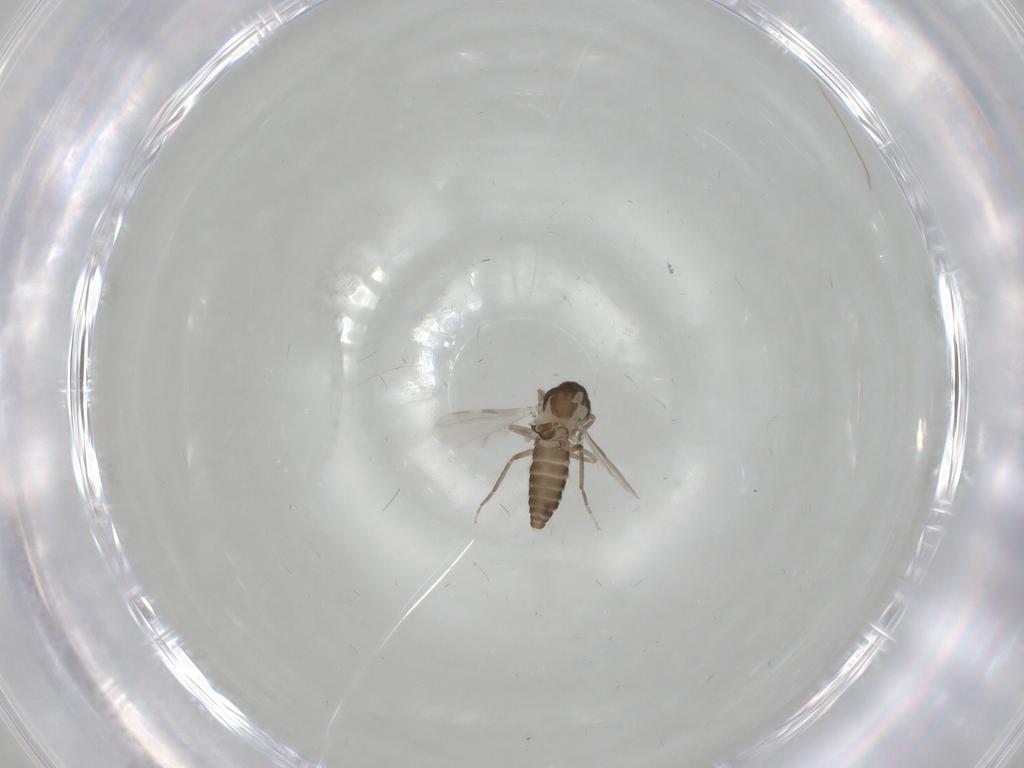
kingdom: Animalia
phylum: Arthropoda
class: Insecta
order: Diptera
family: Ceratopogonidae
